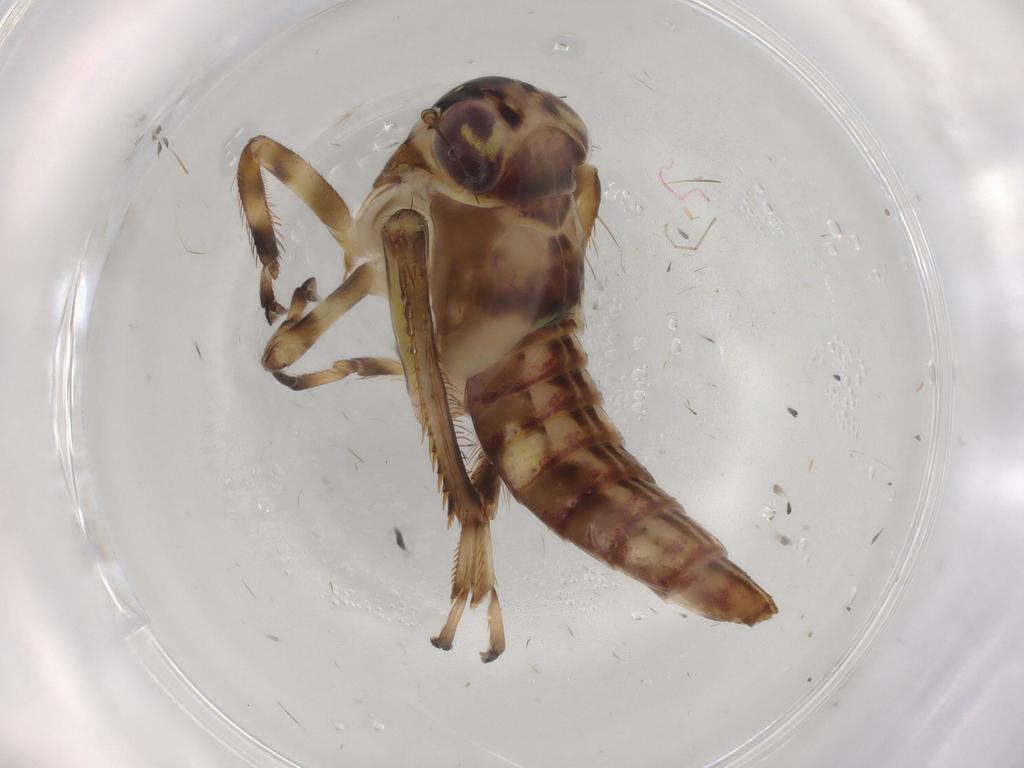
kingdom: Animalia
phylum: Arthropoda
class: Insecta
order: Hemiptera
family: Cicadellidae
